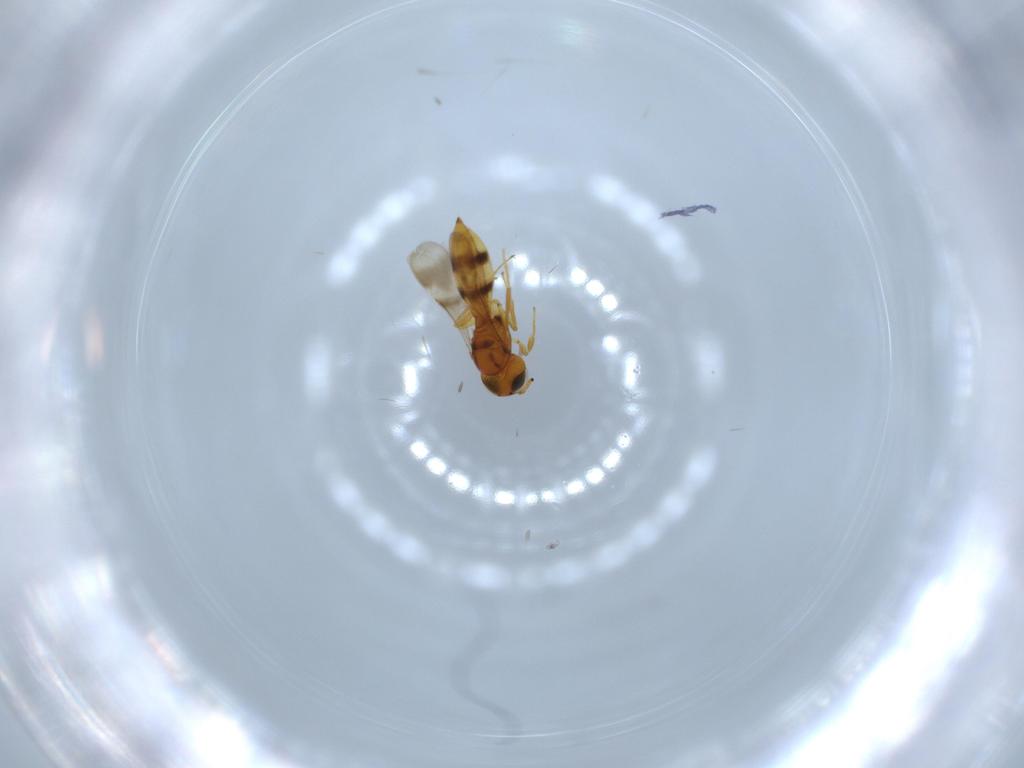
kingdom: Animalia
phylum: Arthropoda
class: Insecta
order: Hymenoptera
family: Scelionidae
